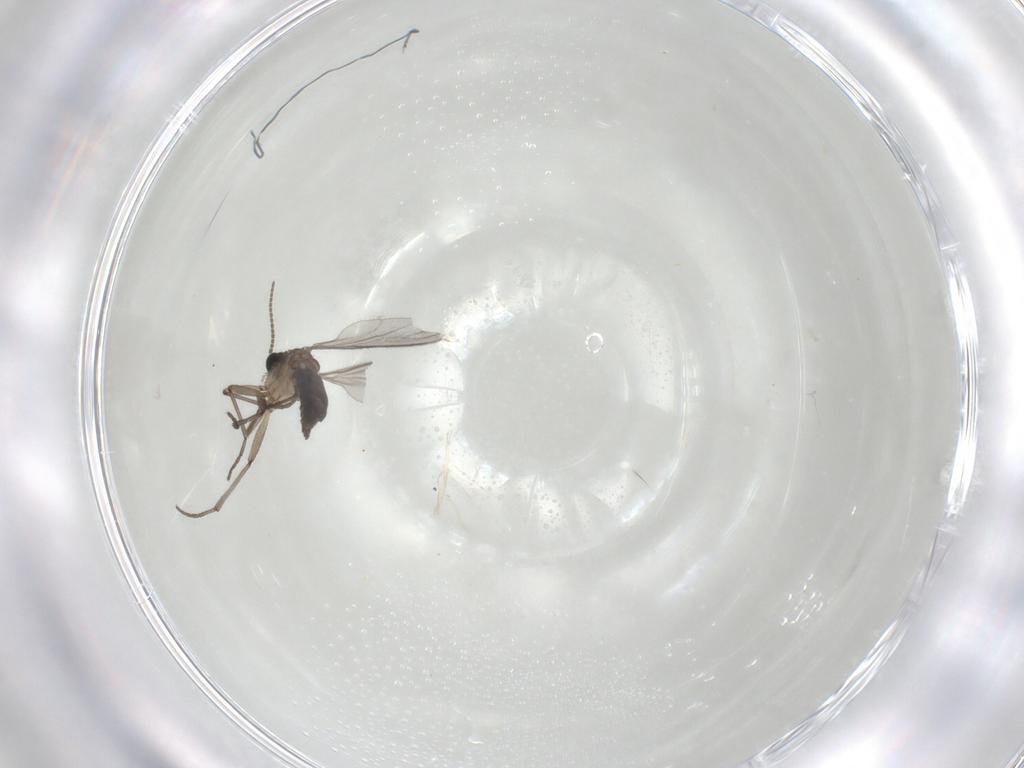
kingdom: Animalia
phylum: Arthropoda
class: Insecta
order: Diptera
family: Sciaridae
